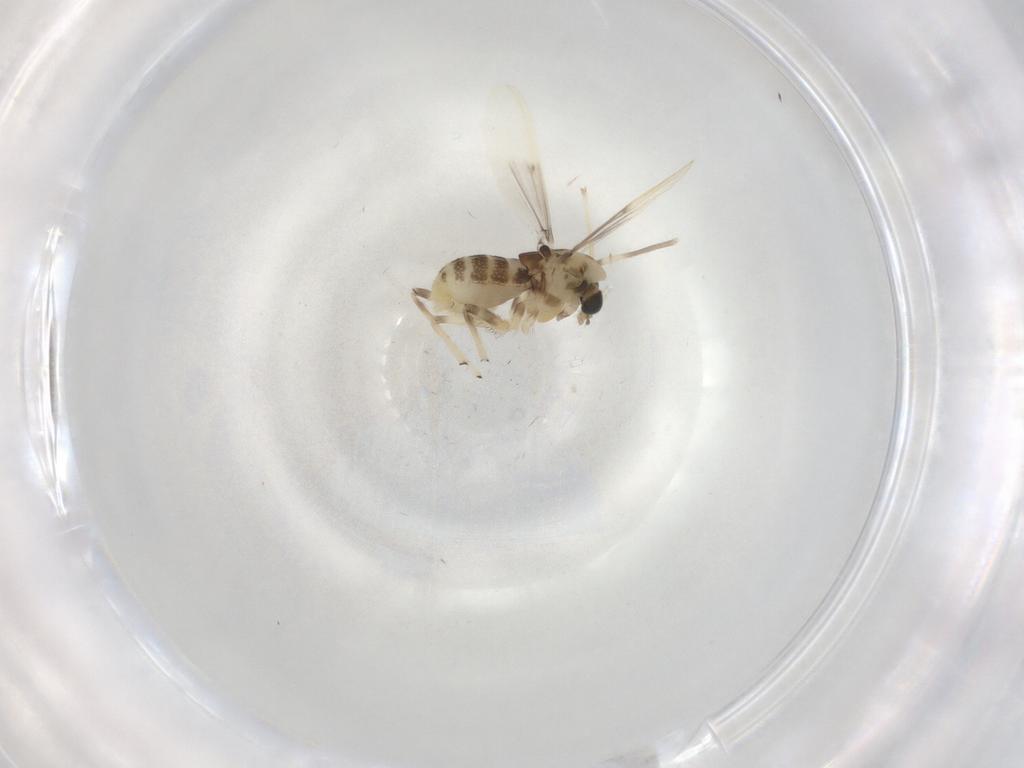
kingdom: Animalia
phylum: Arthropoda
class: Insecta
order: Diptera
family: Chironomidae
